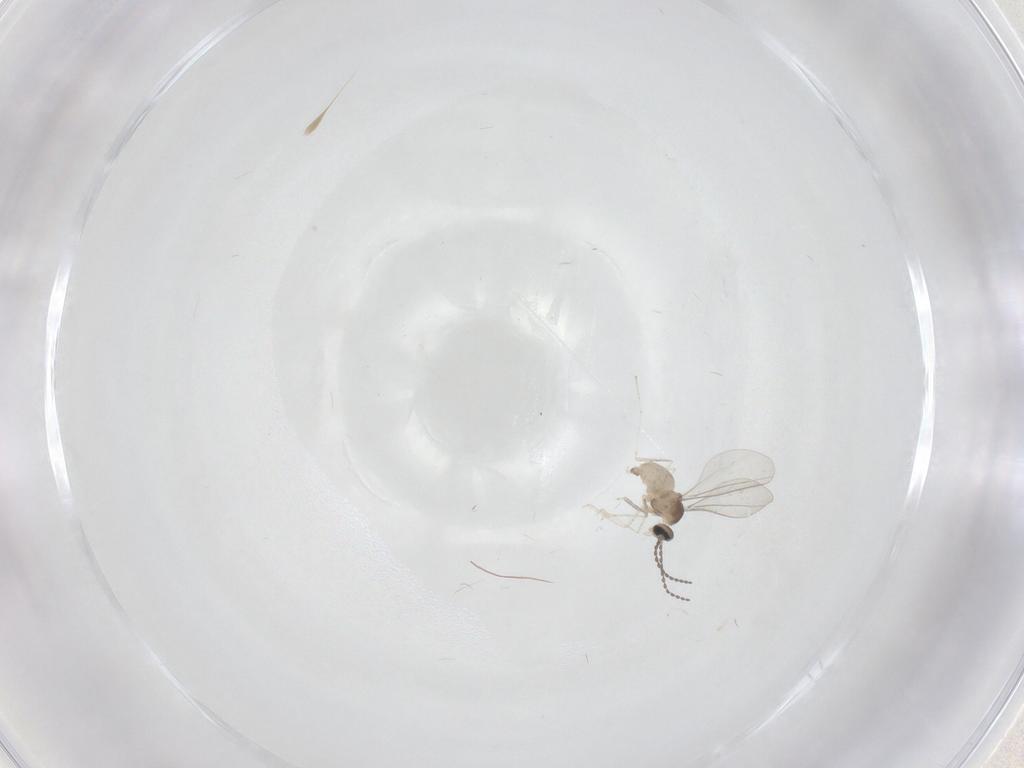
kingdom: Animalia
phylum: Arthropoda
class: Insecta
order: Diptera
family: Cecidomyiidae
